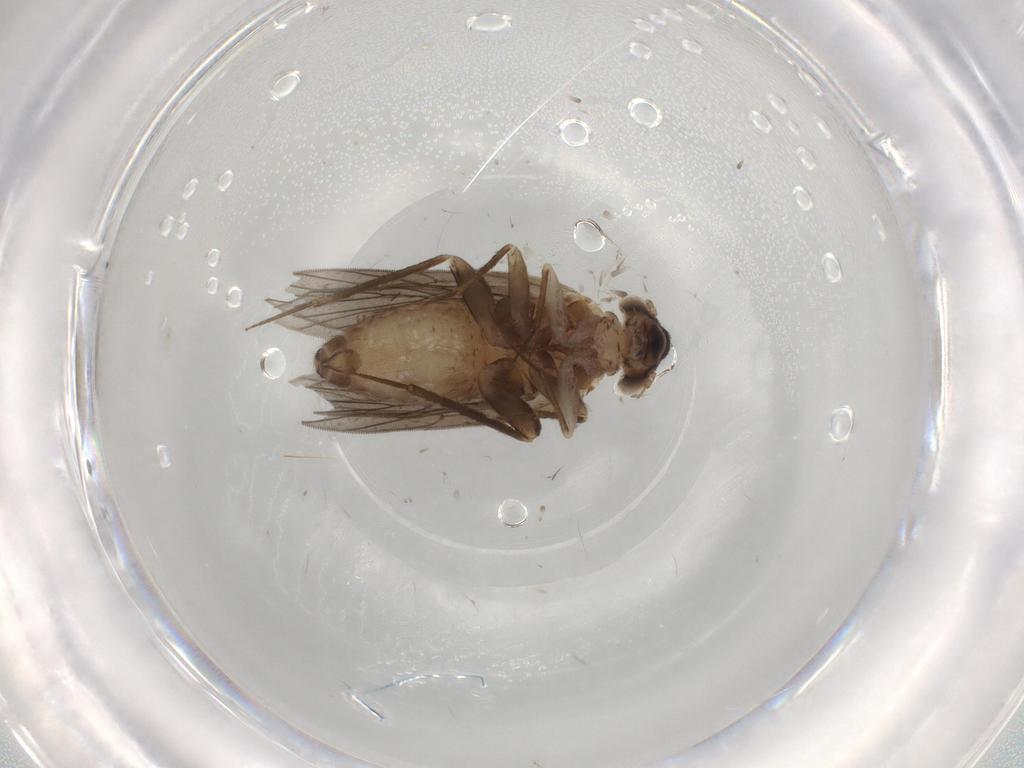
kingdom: Animalia
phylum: Arthropoda
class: Insecta
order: Psocodea
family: Lepidopsocidae
